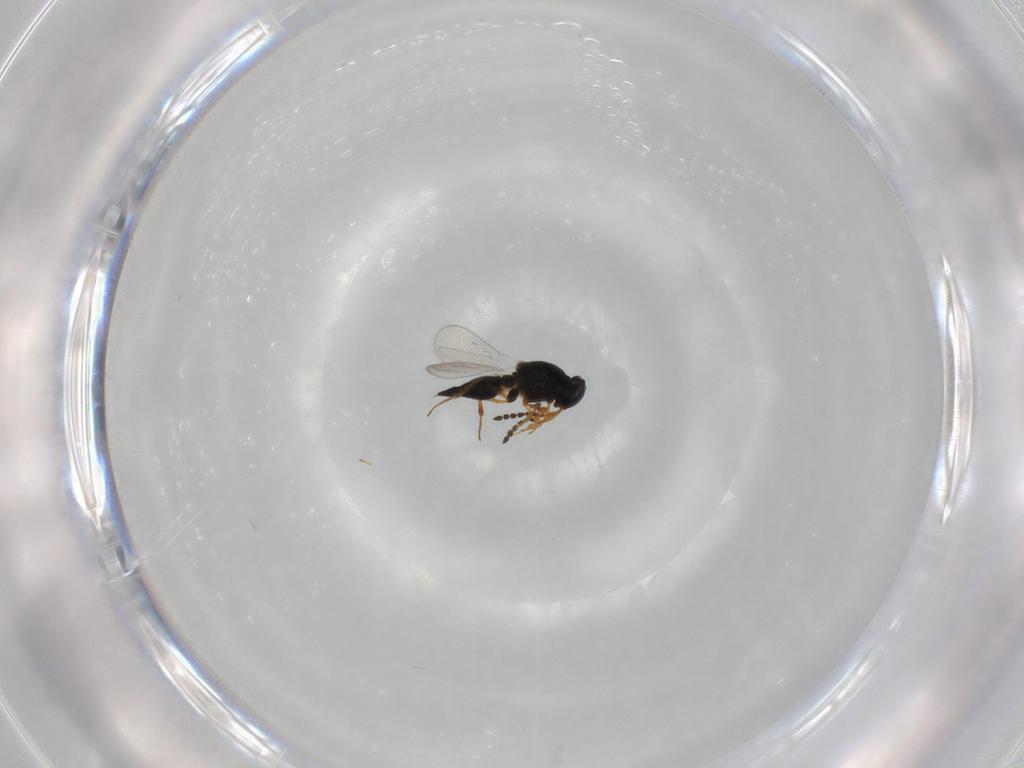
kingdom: Animalia
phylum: Arthropoda
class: Insecta
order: Hymenoptera
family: Platygastridae
